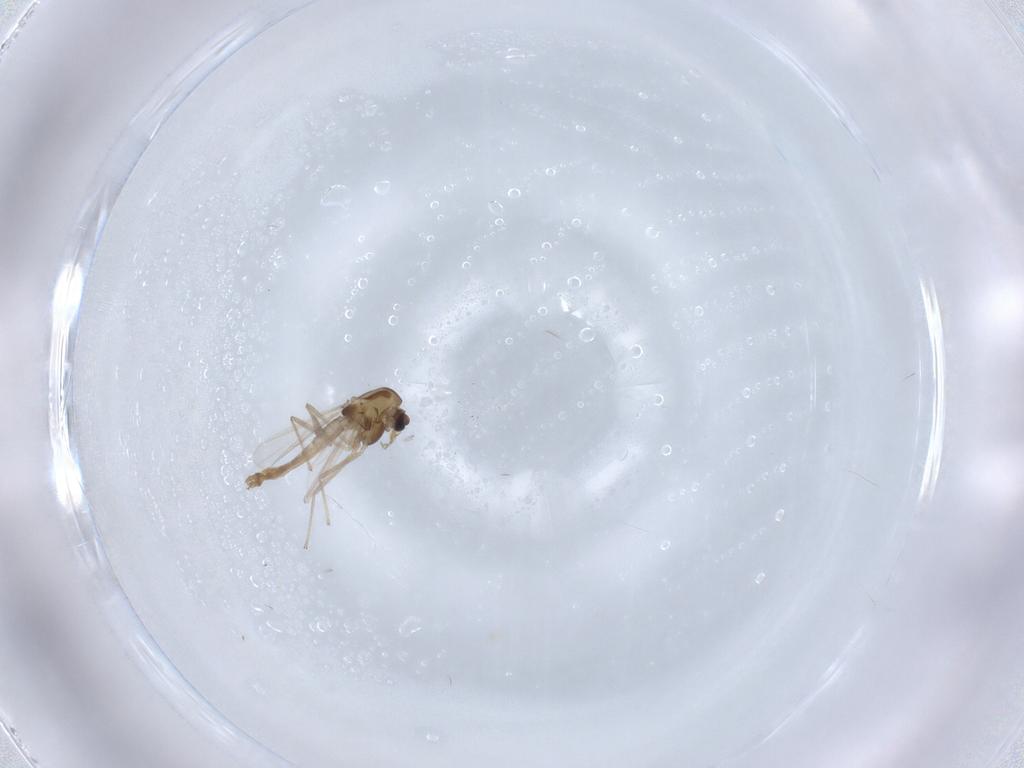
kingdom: Animalia
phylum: Arthropoda
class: Insecta
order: Diptera
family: Chironomidae
